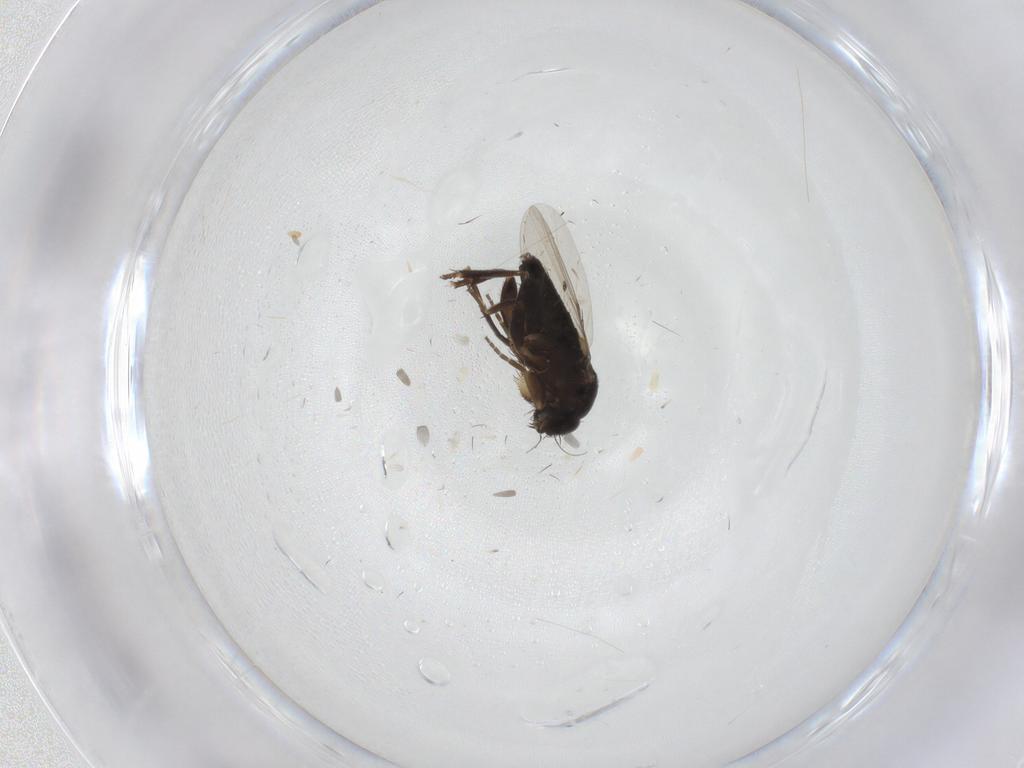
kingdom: Animalia
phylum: Arthropoda
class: Insecta
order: Diptera
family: Phoridae
